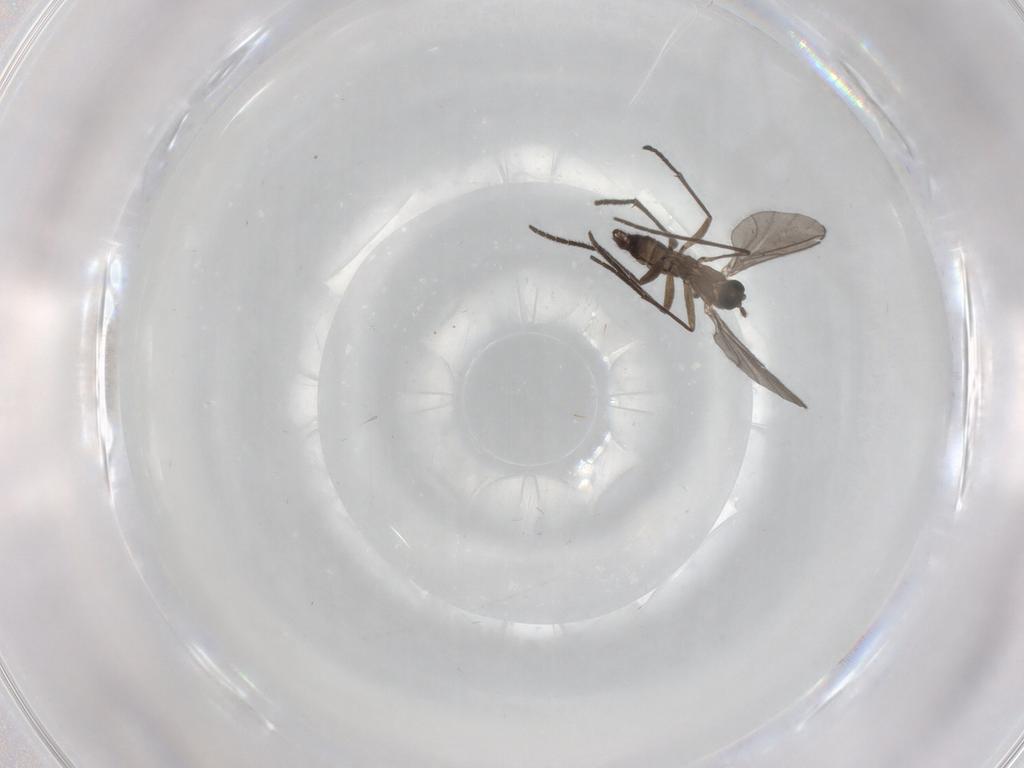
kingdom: Animalia
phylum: Arthropoda
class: Insecta
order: Diptera
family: Sciaridae
